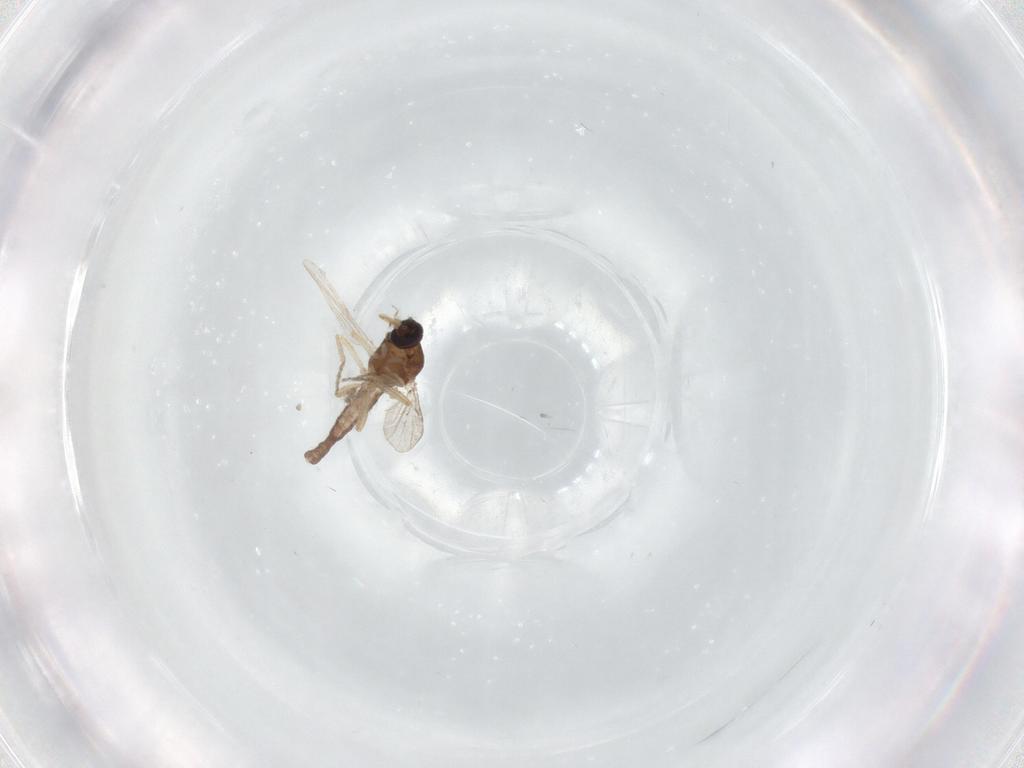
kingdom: Animalia
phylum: Arthropoda
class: Insecta
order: Diptera
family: Ceratopogonidae
